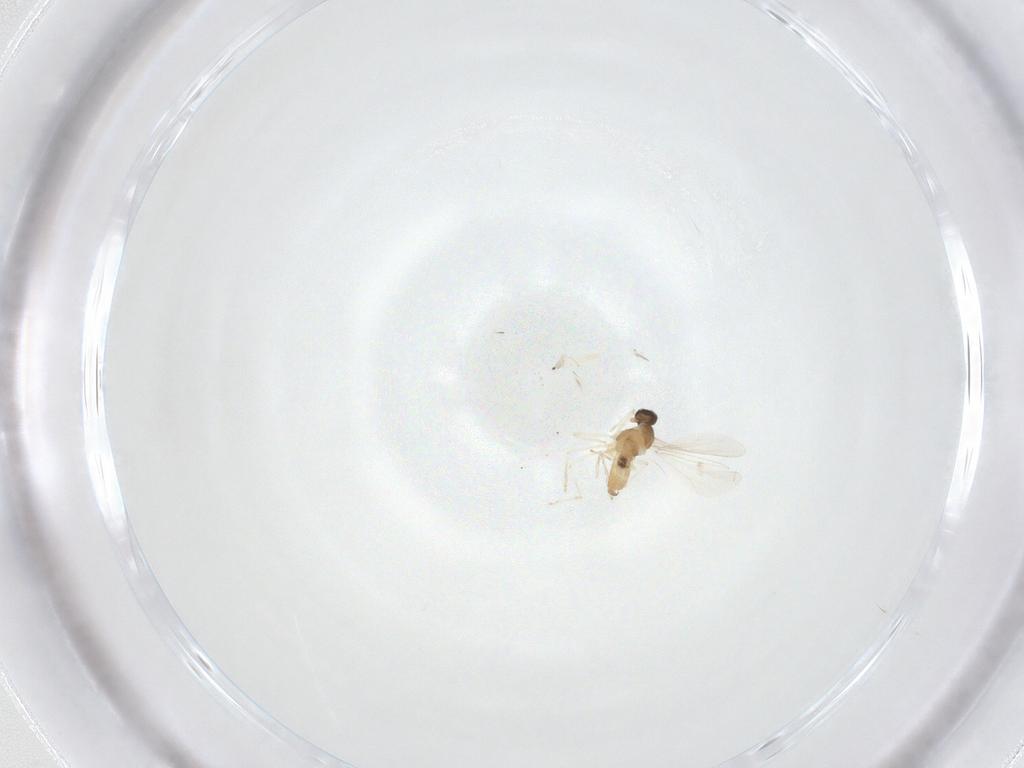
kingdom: Animalia
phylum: Arthropoda
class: Insecta
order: Diptera
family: Cecidomyiidae
